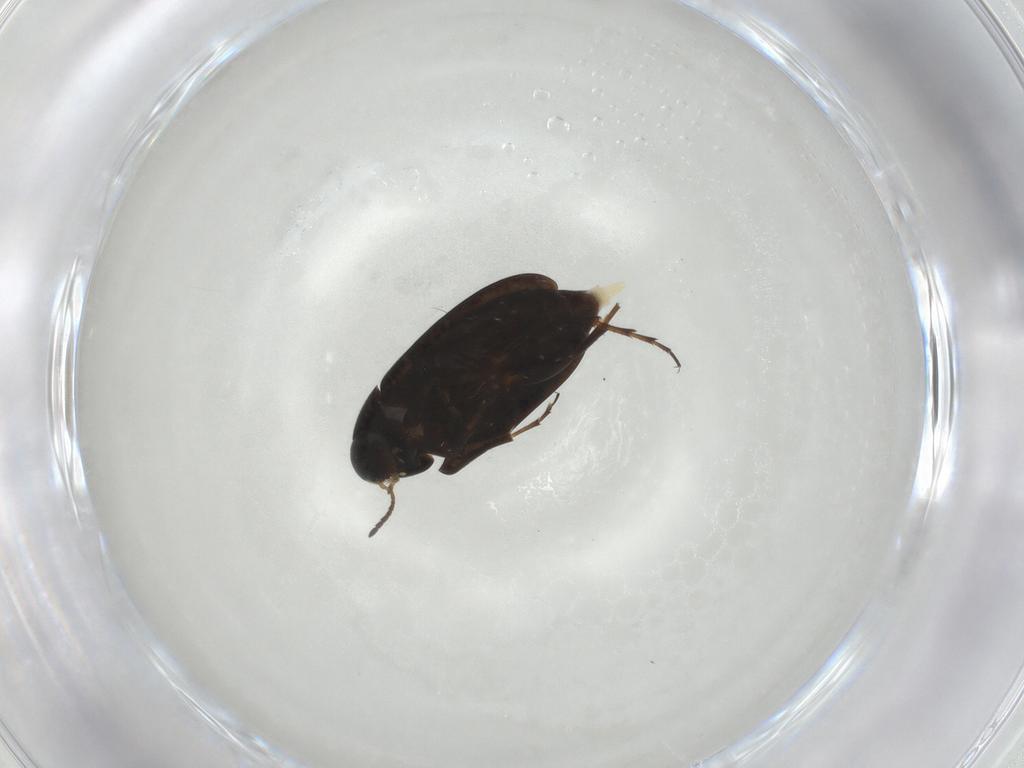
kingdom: Animalia
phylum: Arthropoda
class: Insecta
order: Coleoptera
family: Scraptiidae
